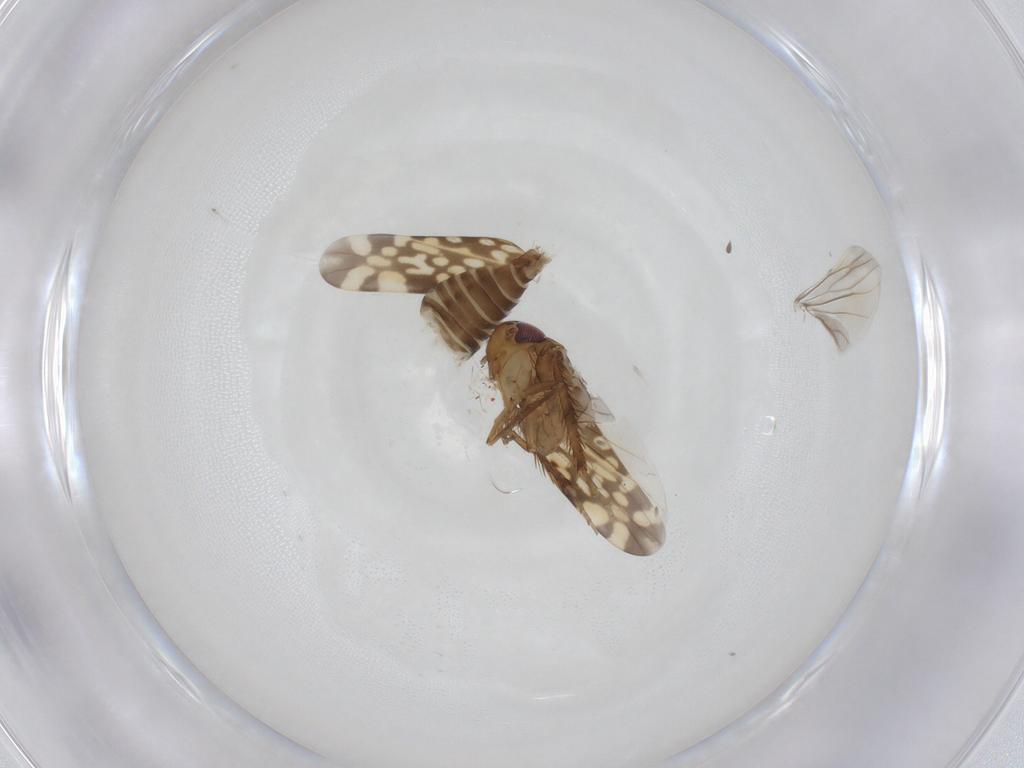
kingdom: Animalia
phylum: Arthropoda
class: Insecta
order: Hemiptera
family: Cicadellidae
